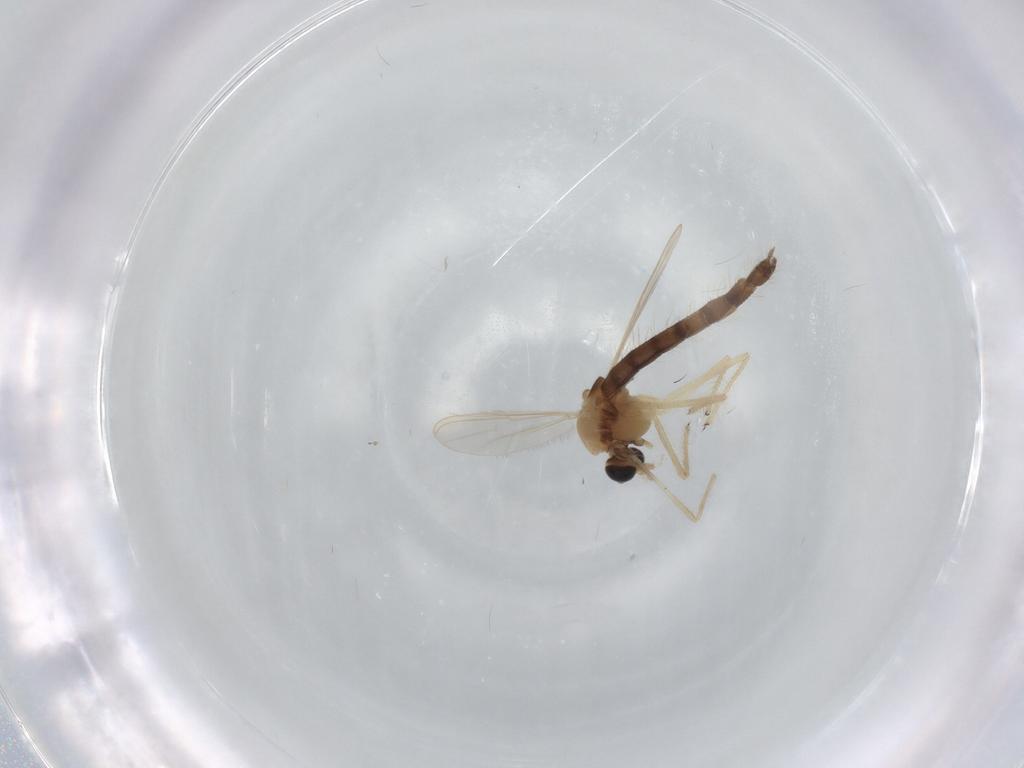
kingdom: Animalia
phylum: Arthropoda
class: Insecta
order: Diptera
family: Chironomidae
